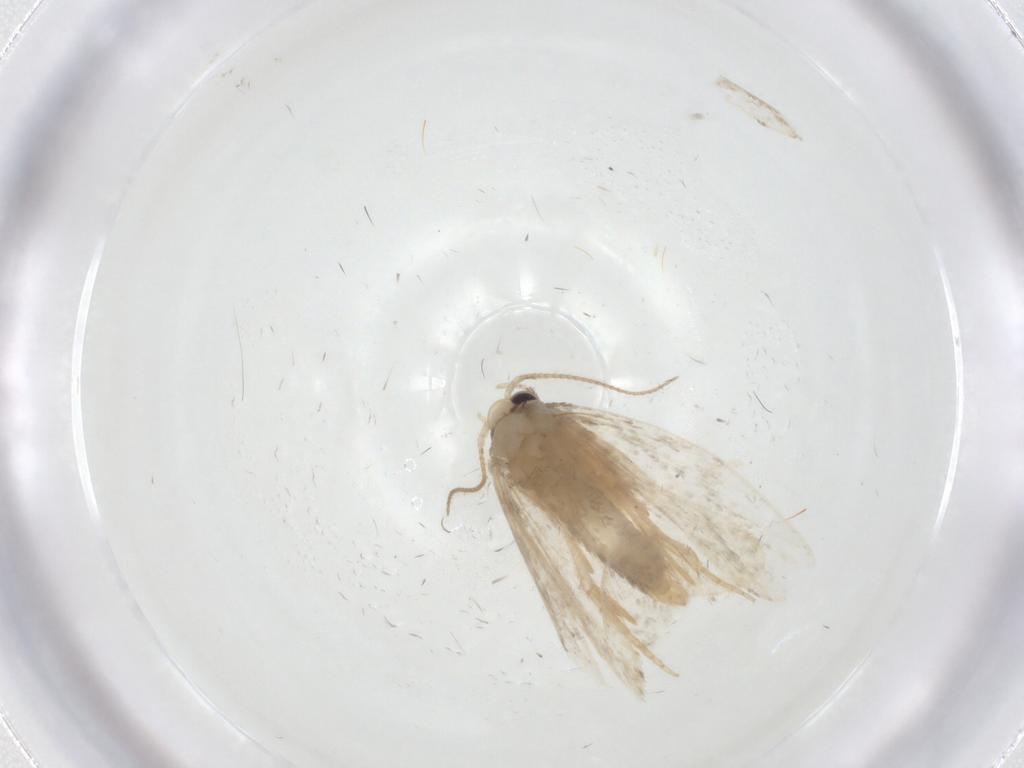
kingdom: Animalia
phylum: Arthropoda
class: Insecta
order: Lepidoptera
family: Psychidae
